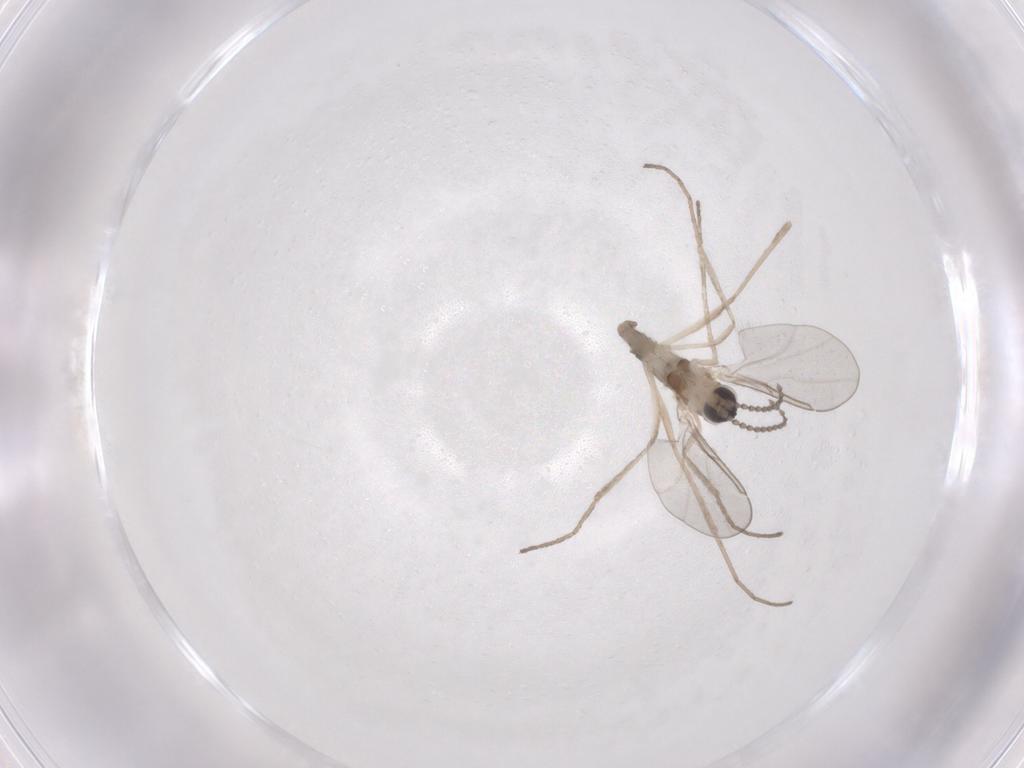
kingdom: Animalia
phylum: Arthropoda
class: Insecta
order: Diptera
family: Cecidomyiidae
